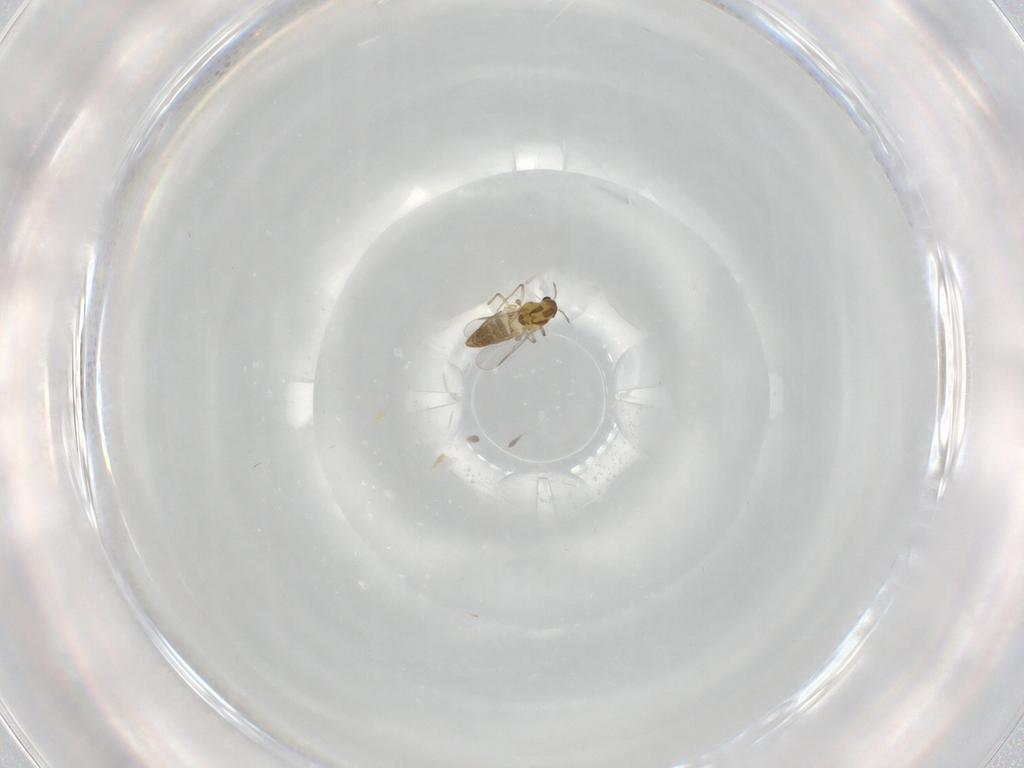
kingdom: Animalia
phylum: Arthropoda
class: Insecta
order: Diptera
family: Chironomidae
